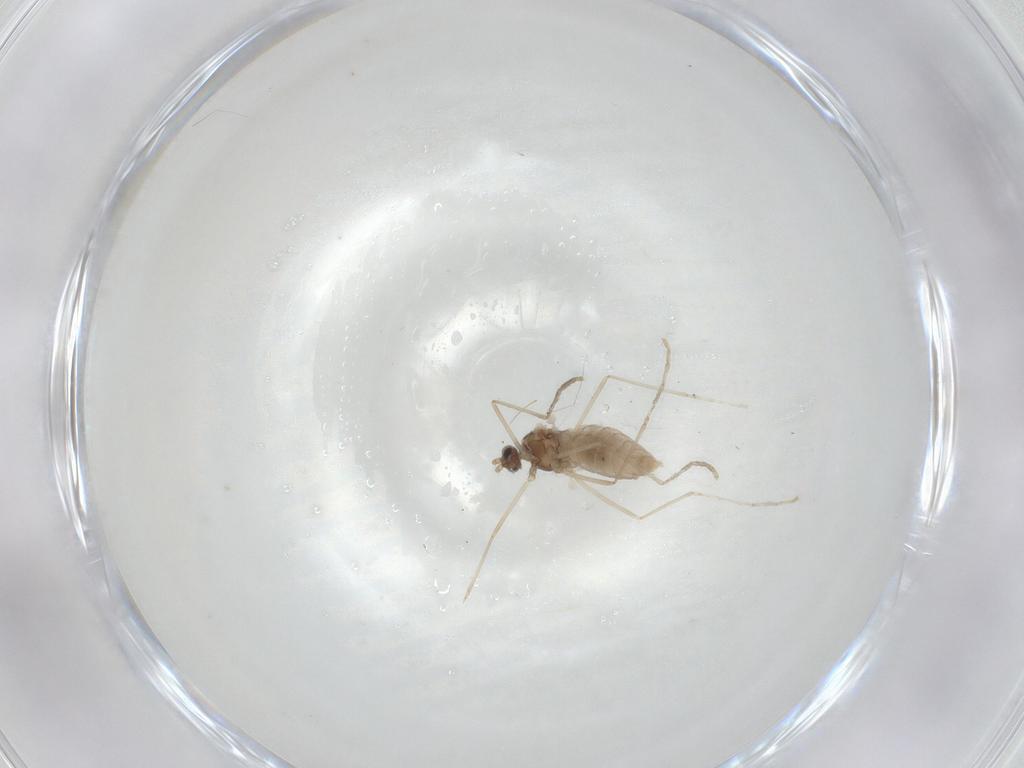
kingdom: Animalia
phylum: Arthropoda
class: Insecta
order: Diptera
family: Cecidomyiidae
